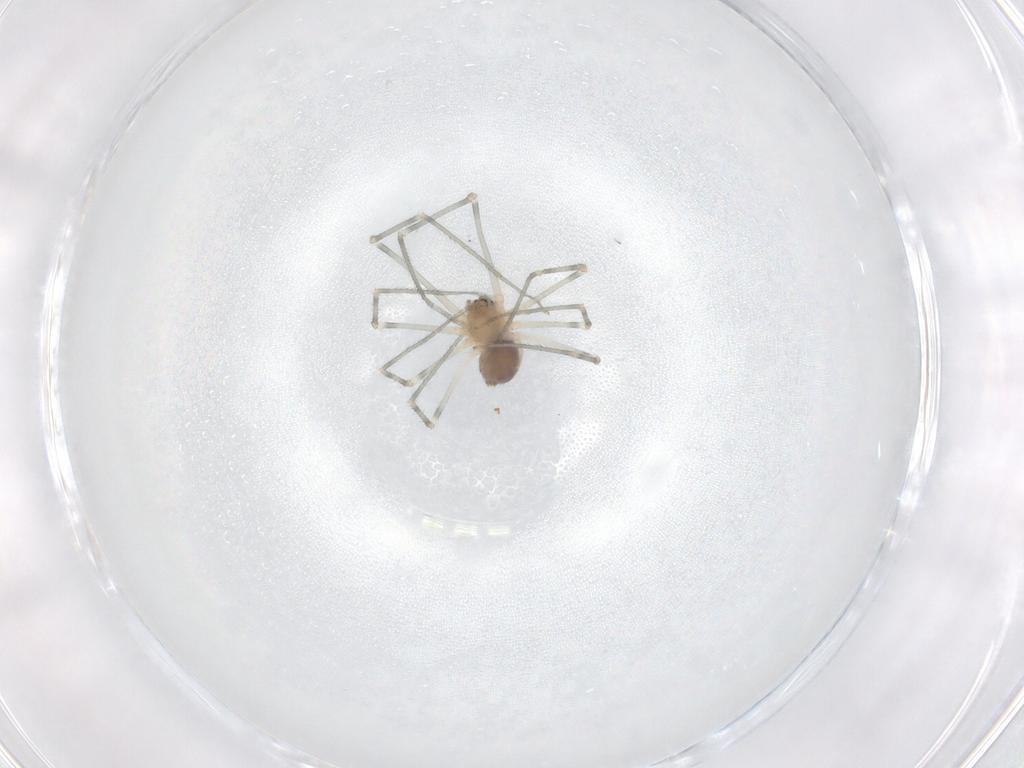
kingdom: Animalia
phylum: Arthropoda
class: Arachnida
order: Araneae
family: Pholcidae
